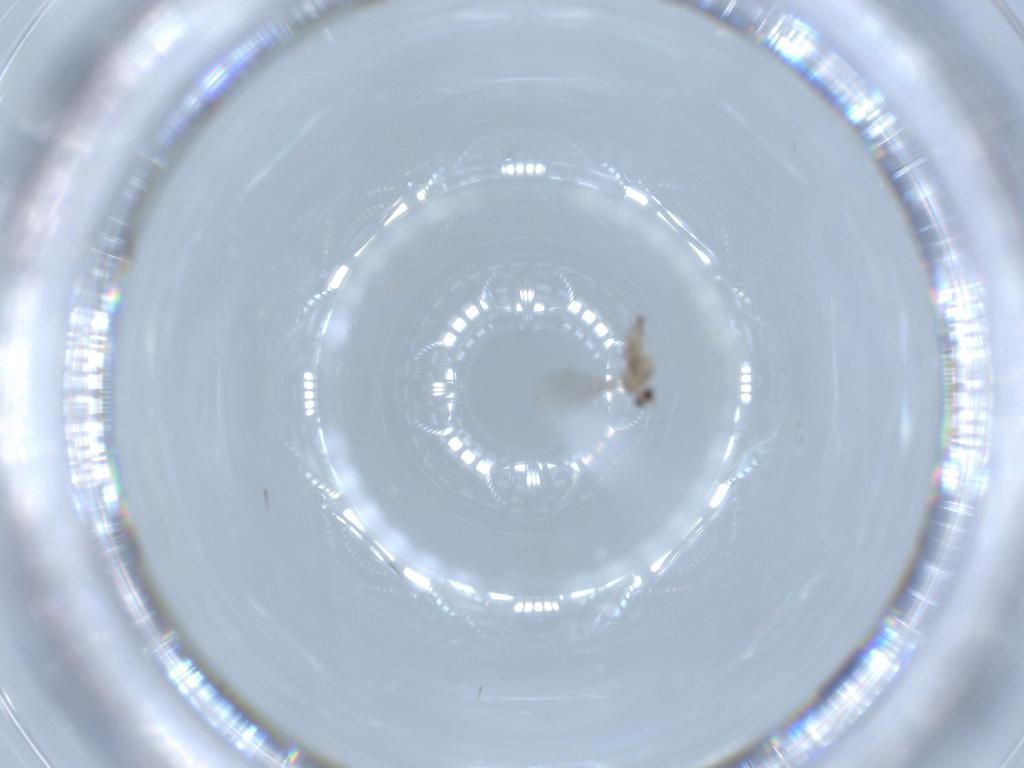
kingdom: Animalia
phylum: Arthropoda
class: Insecta
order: Diptera
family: Cecidomyiidae
